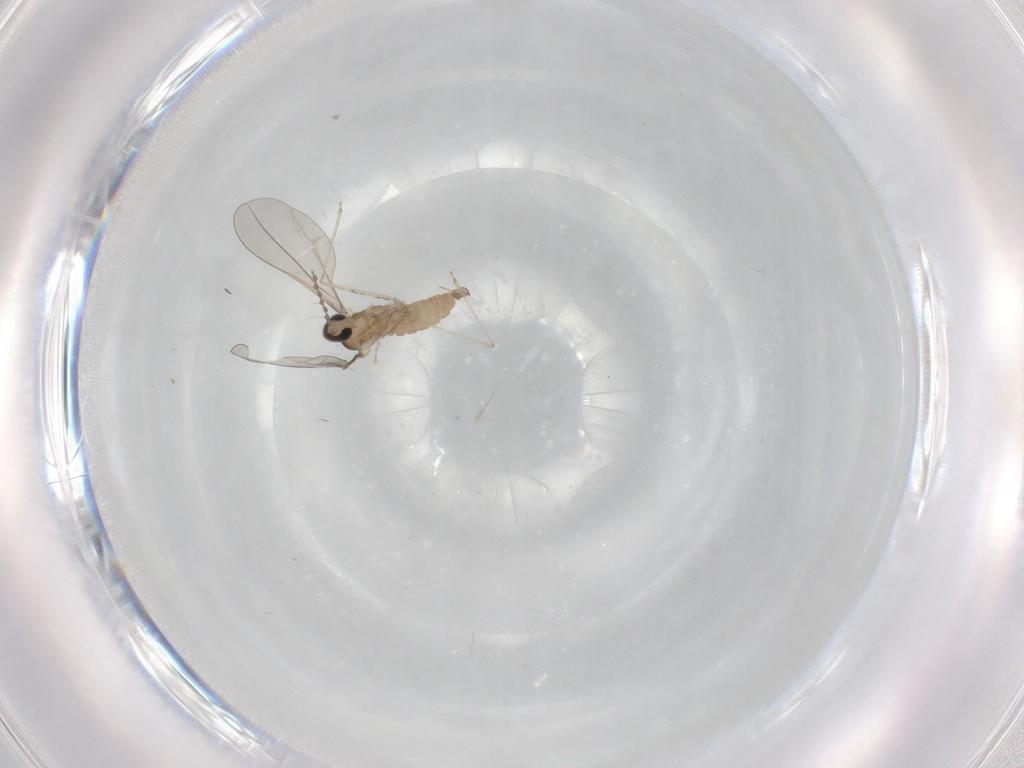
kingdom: Animalia
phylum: Arthropoda
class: Insecta
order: Diptera
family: Cecidomyiidae
